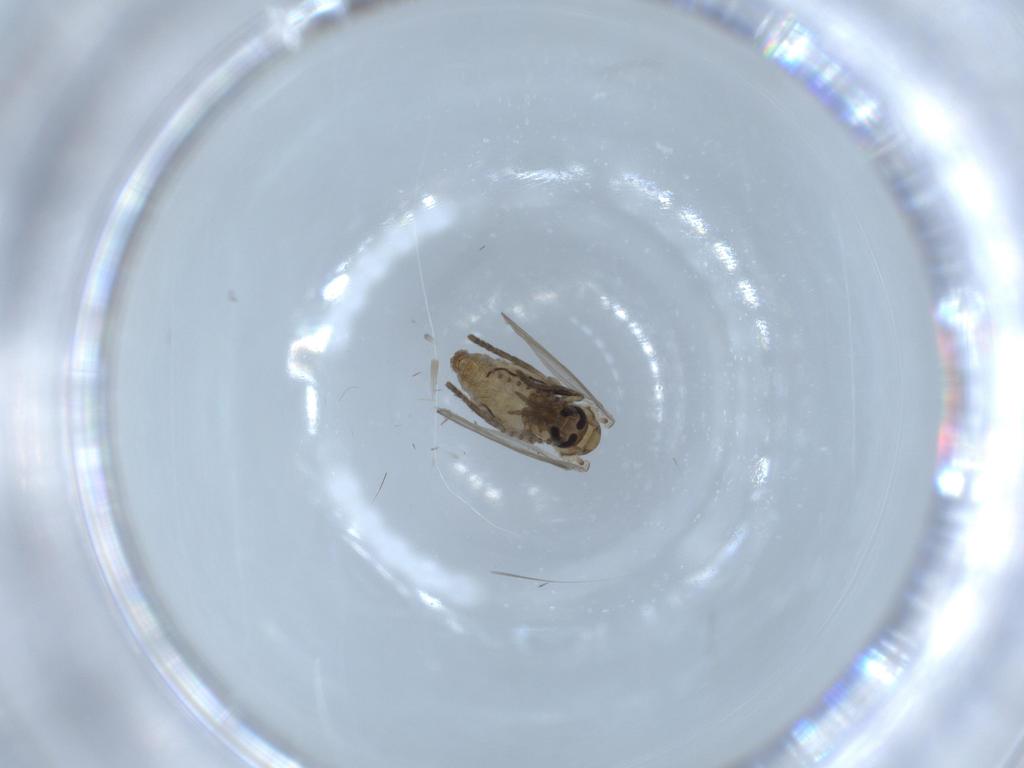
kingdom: Animalia
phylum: Arthropoda
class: Insecta
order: Diptera
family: Psychodidae
